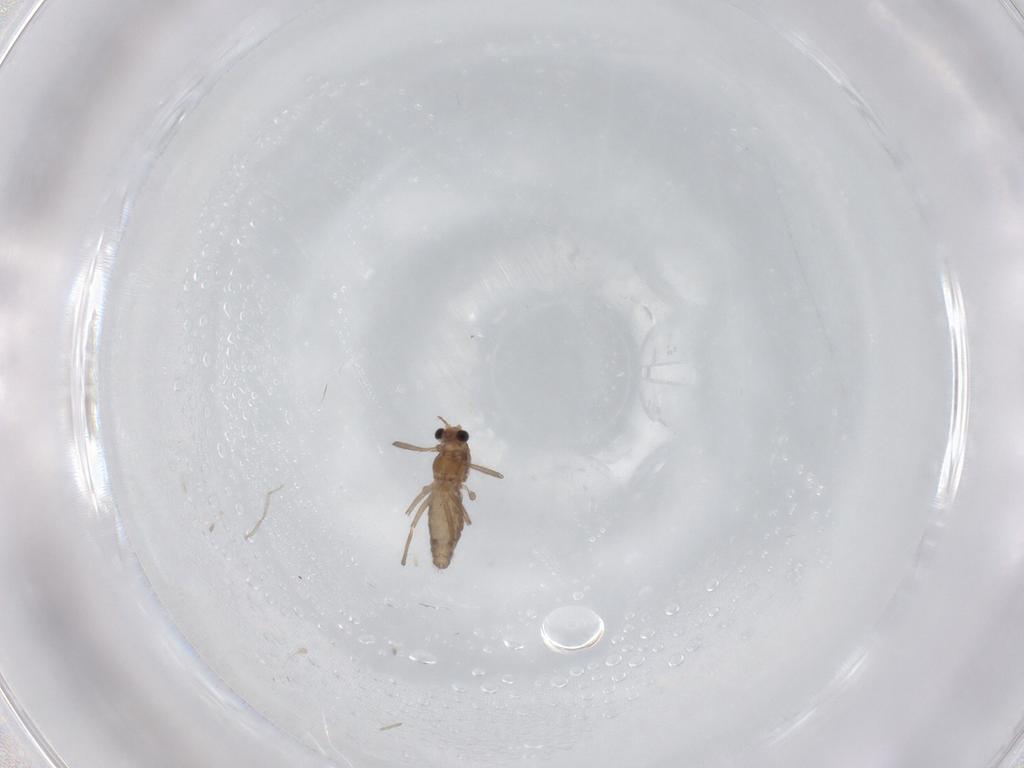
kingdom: Animalia
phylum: Arthropoda
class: Insecta
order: Diptera
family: Chironomidae
